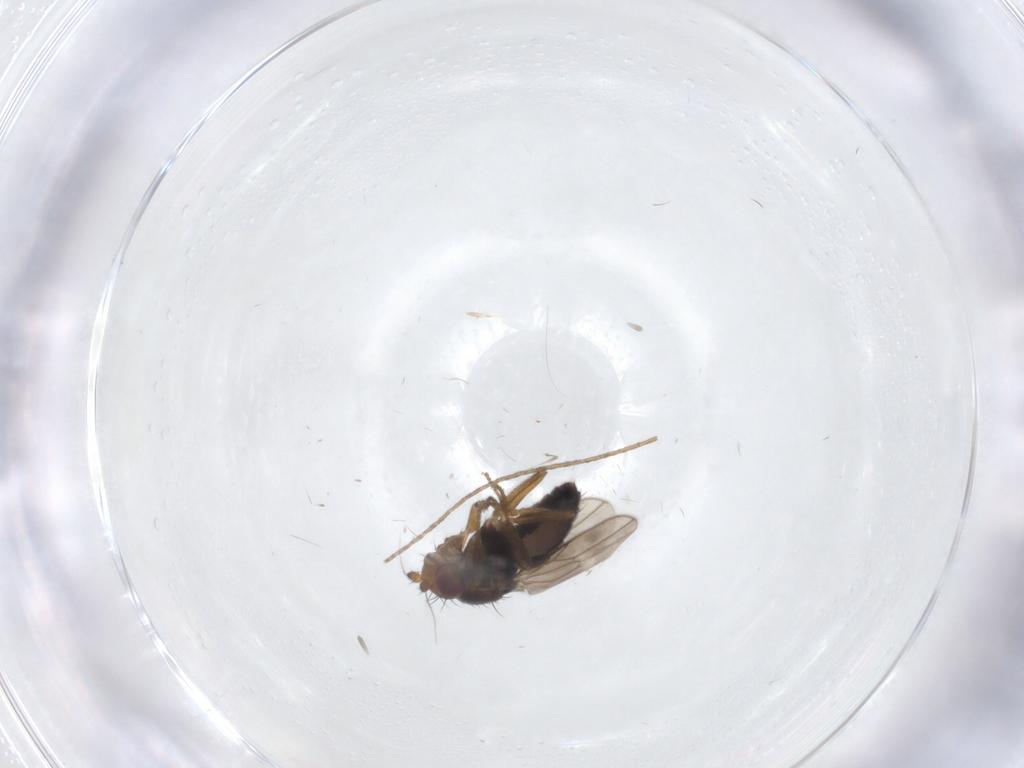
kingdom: Animalia
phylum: Arthropoda
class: Insecta
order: Diptera
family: Sphaeroceridae
